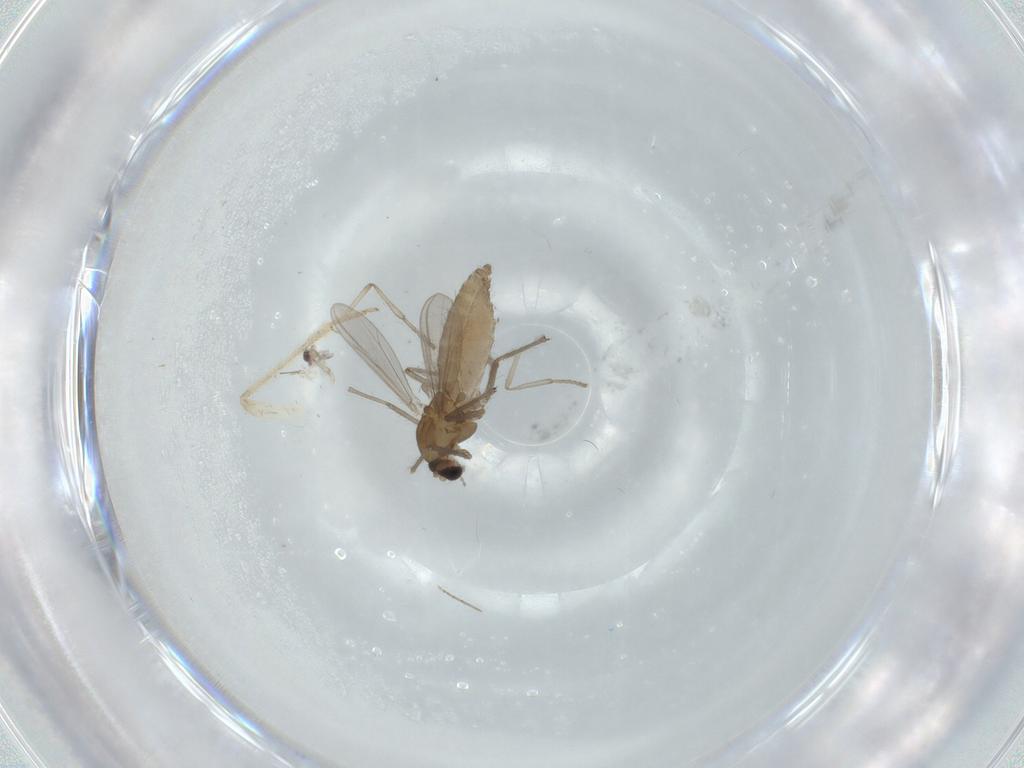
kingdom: Animalia
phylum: Arthropoda
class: Insecta
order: Diptera
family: Chironomidae
